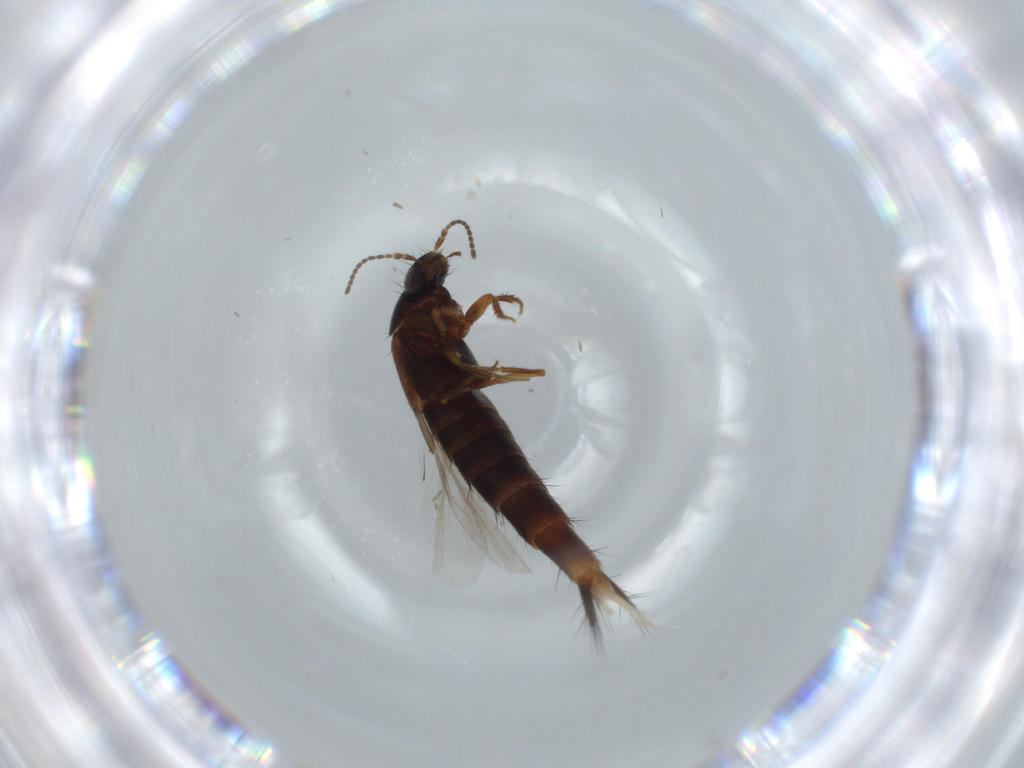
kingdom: Animalia
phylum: Arthropoda
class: Insecta
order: Coleoptera
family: Staphylinidae
